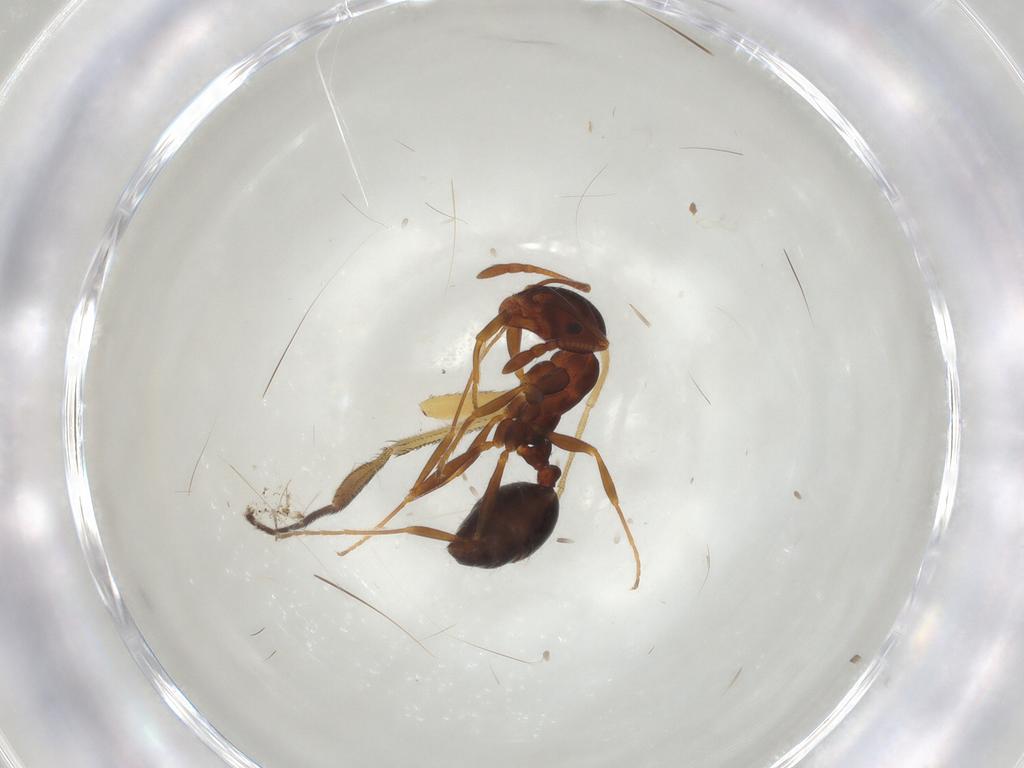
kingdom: Animalia
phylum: Arthropoda
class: Insecta
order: Hymenoptera
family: Formicidae
